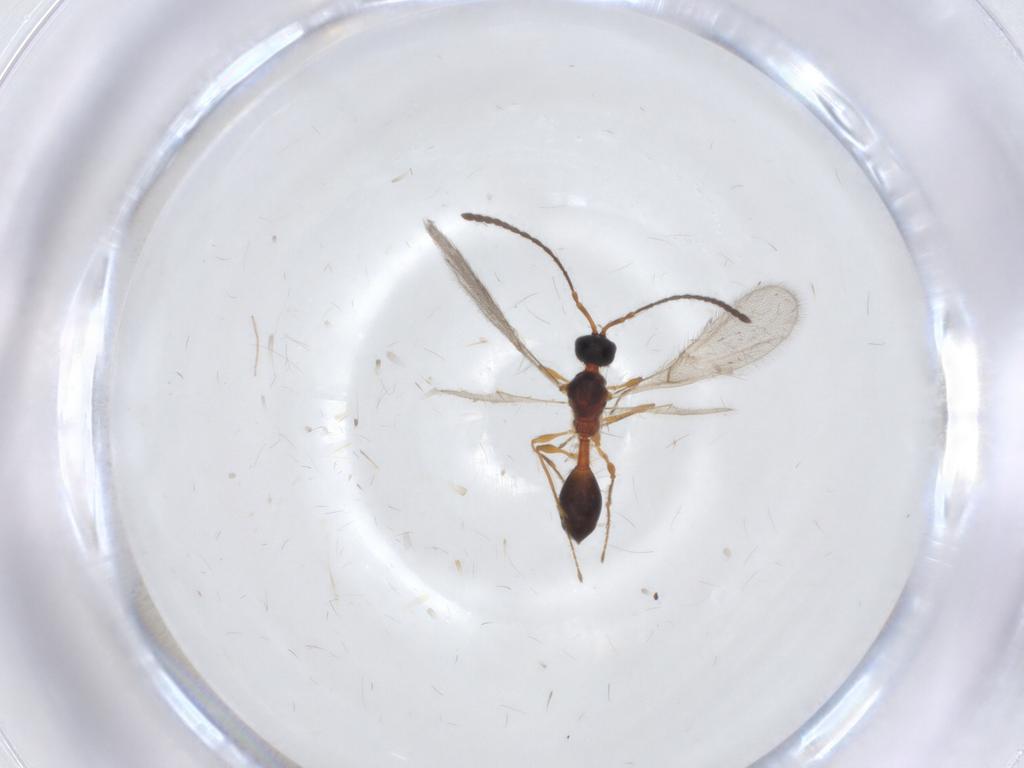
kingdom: Animalia
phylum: Arthropoda
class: Insecta
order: Hymenoptera
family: Diapriidae
